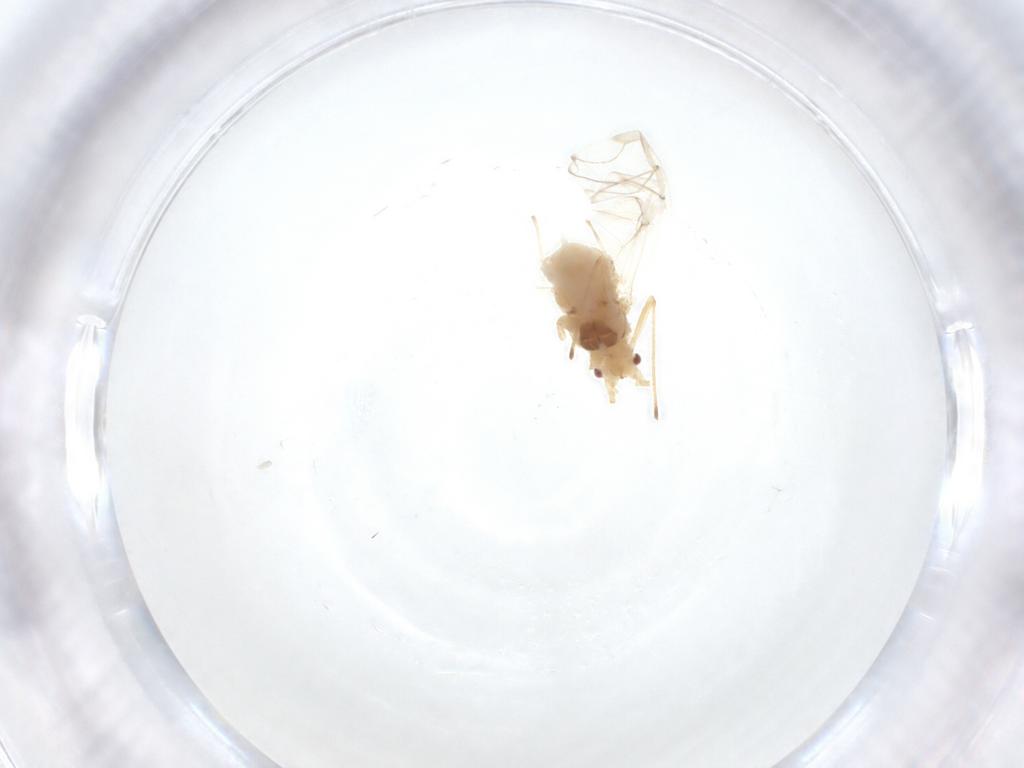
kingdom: Animalia
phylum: Arthropoda
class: Insecta
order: Hemiptera
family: Aphididae
